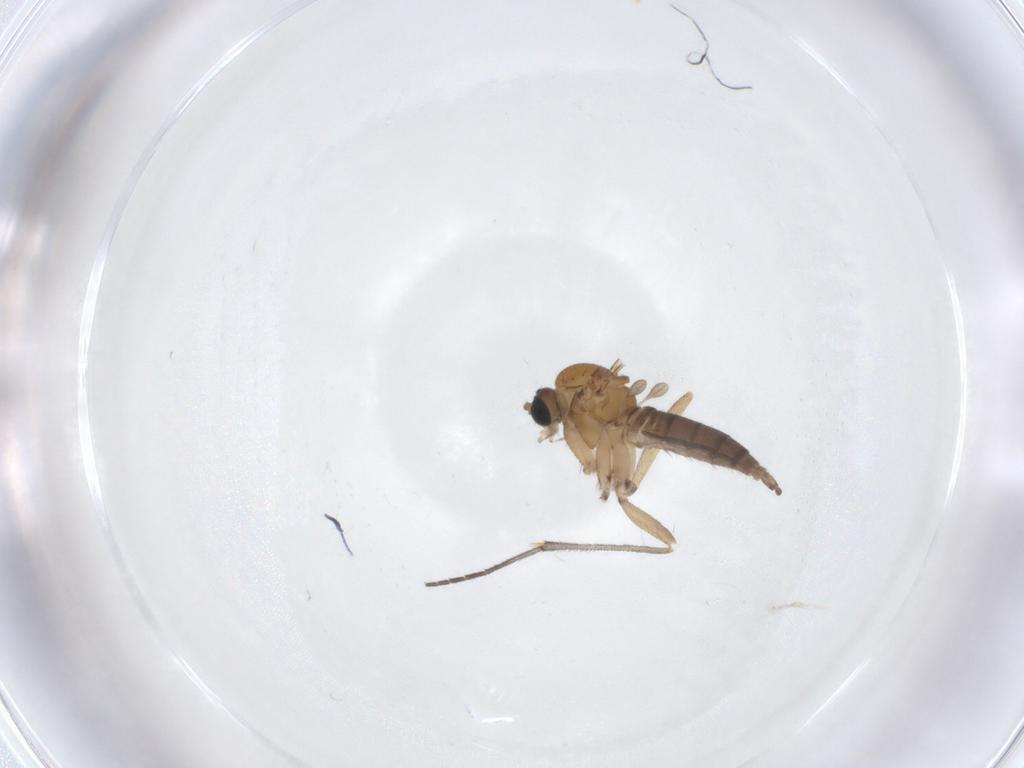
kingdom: Animalia
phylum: Arthropoda
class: Insecta
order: Diptera
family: Sciaridae
